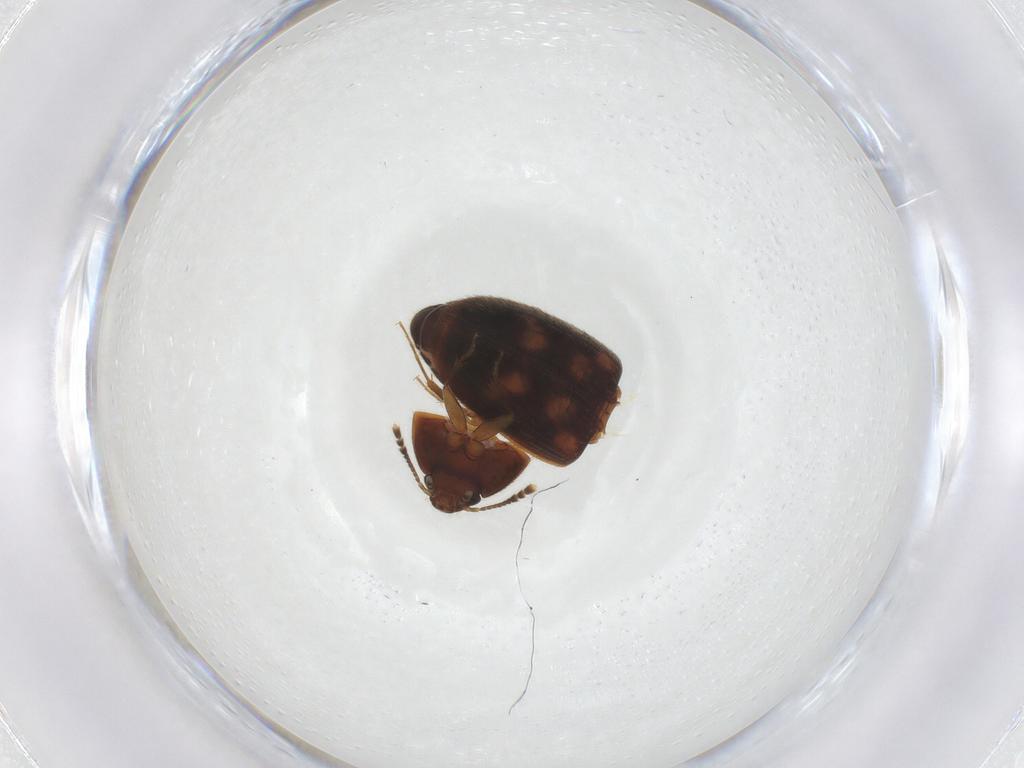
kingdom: Animalia
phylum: Arthropoda
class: Insecta
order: Coleoptera
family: Mycetophagidae
